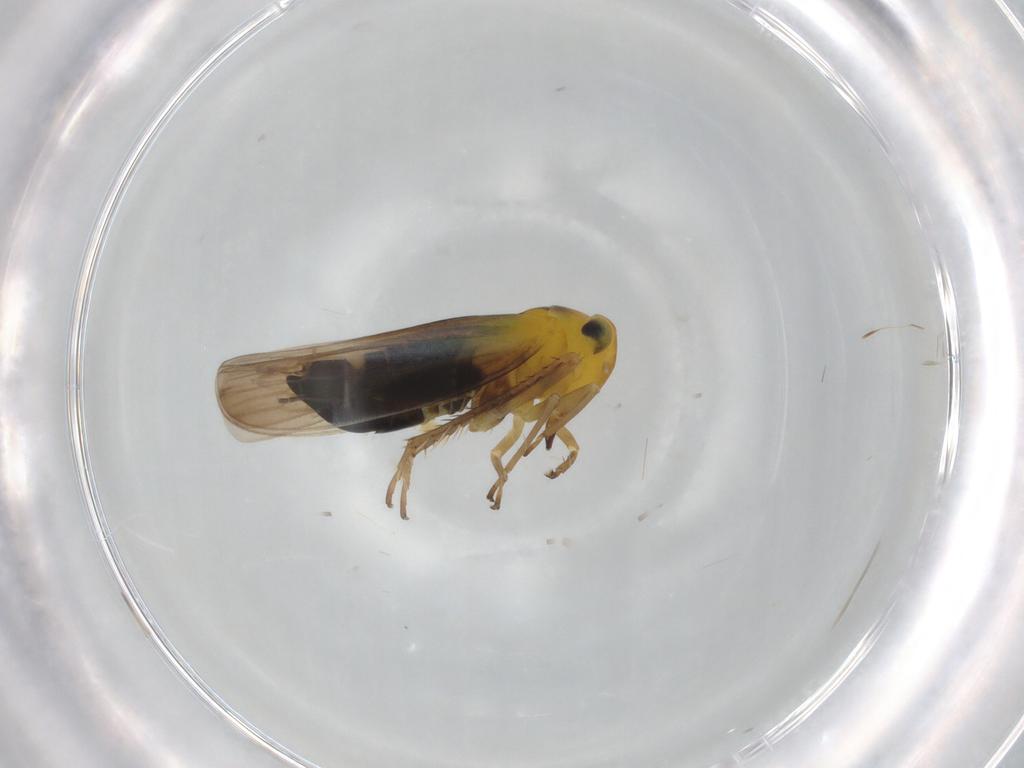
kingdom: Animalia
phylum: Arthropoda
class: Insecta
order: Hemiptera
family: Cicadellidae
